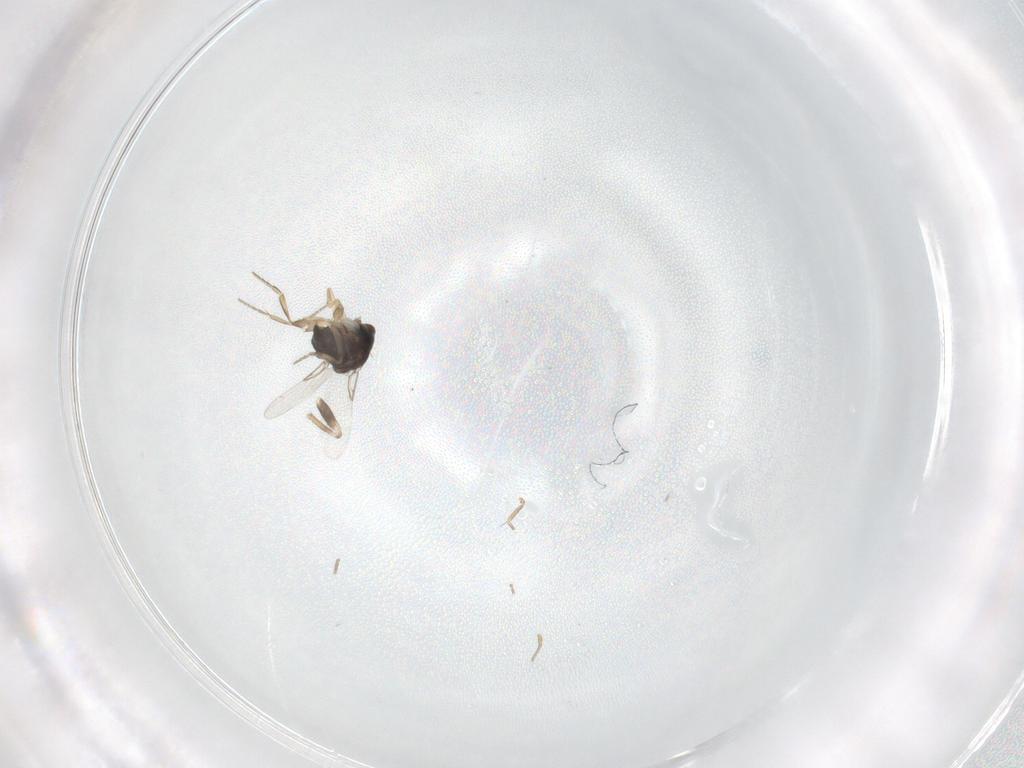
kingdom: Animalia
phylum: Arthropoda
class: Insecta
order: Diptera
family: Phoridae
